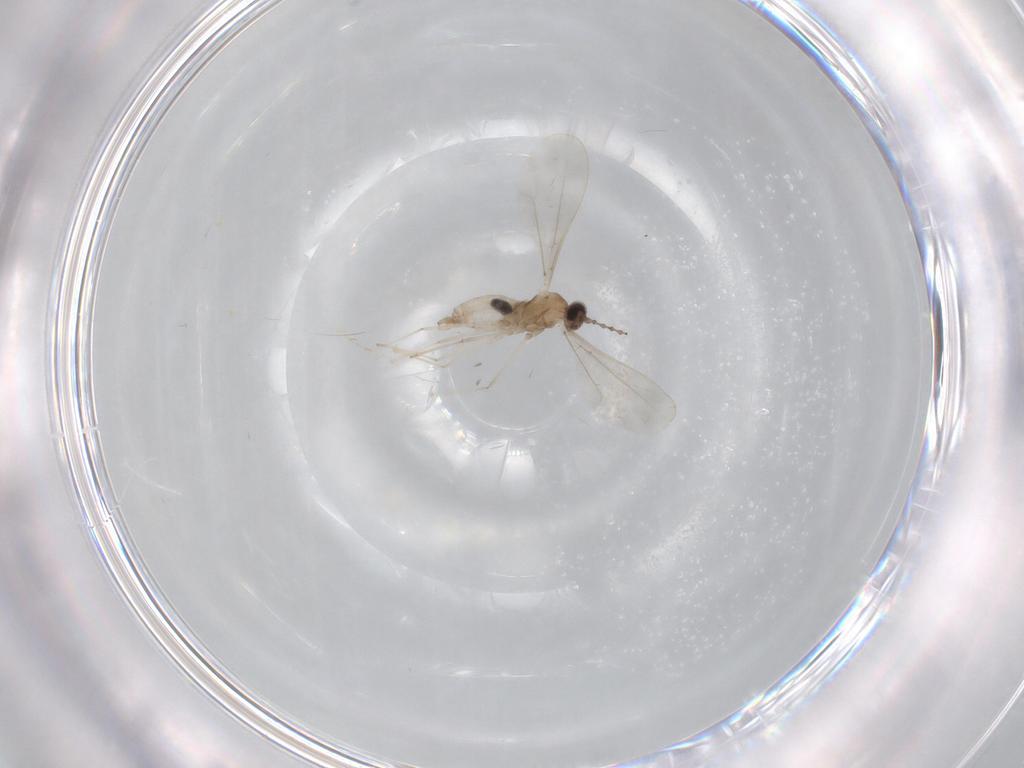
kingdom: Animalia
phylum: Arthropoda
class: Insecta
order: Diptera
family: Cecidomyiidae
